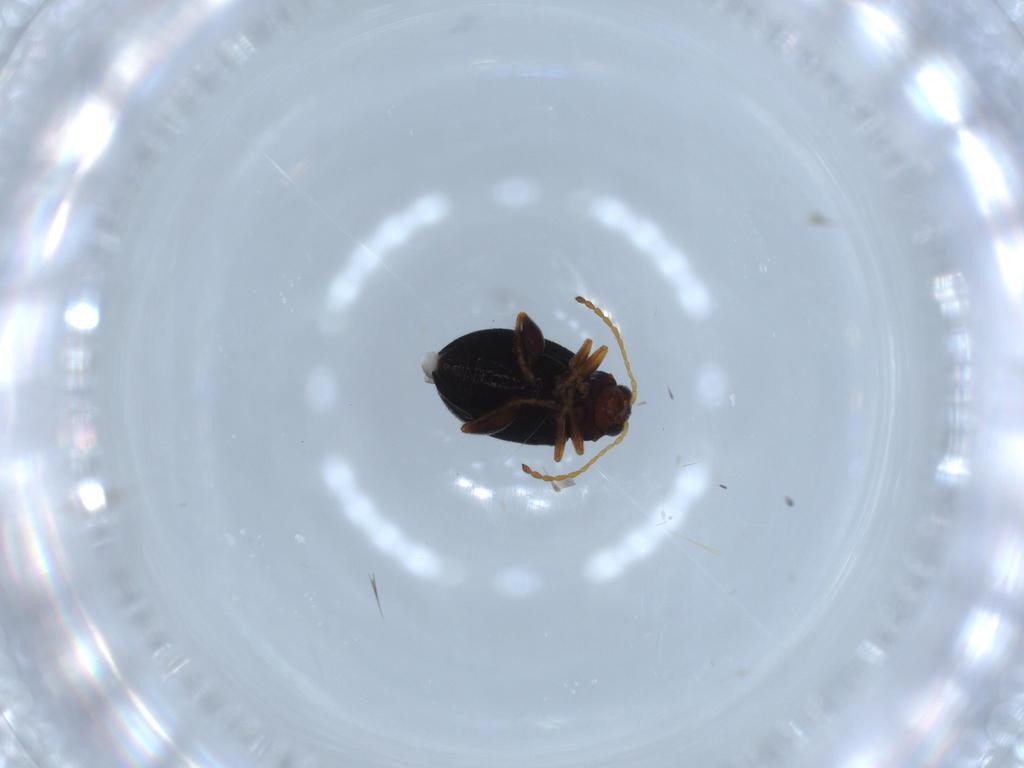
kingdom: Animalia
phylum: Arthropoda
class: Insecta
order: Coleoptera
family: Chrysomelidae
